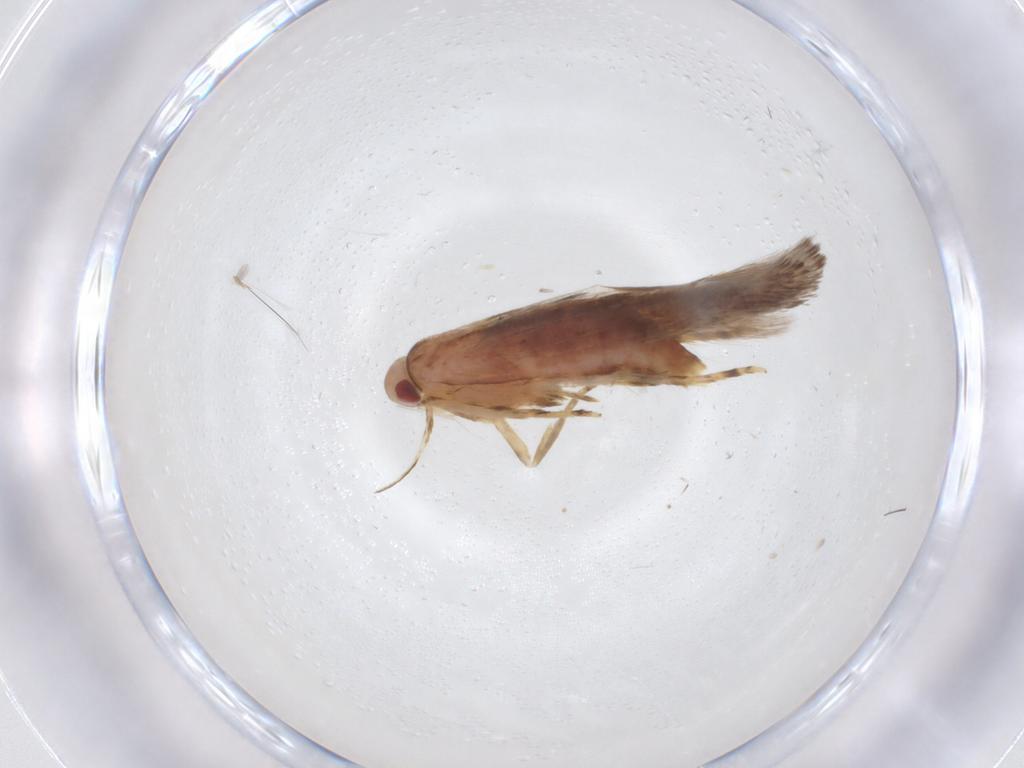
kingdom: Animalia
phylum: Arthropoda
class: Insecta
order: Lepidoptera
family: Cosmopterigidae
